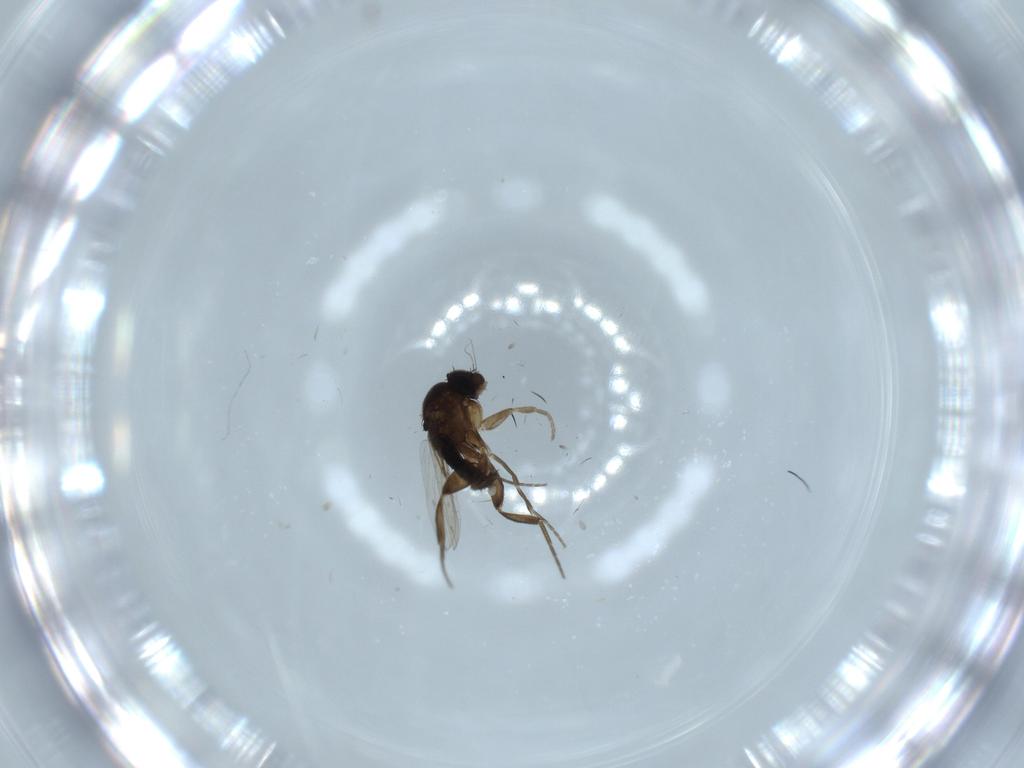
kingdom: Animalia
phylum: Arthropoda
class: Insecta
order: Diptera
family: Phoridae
